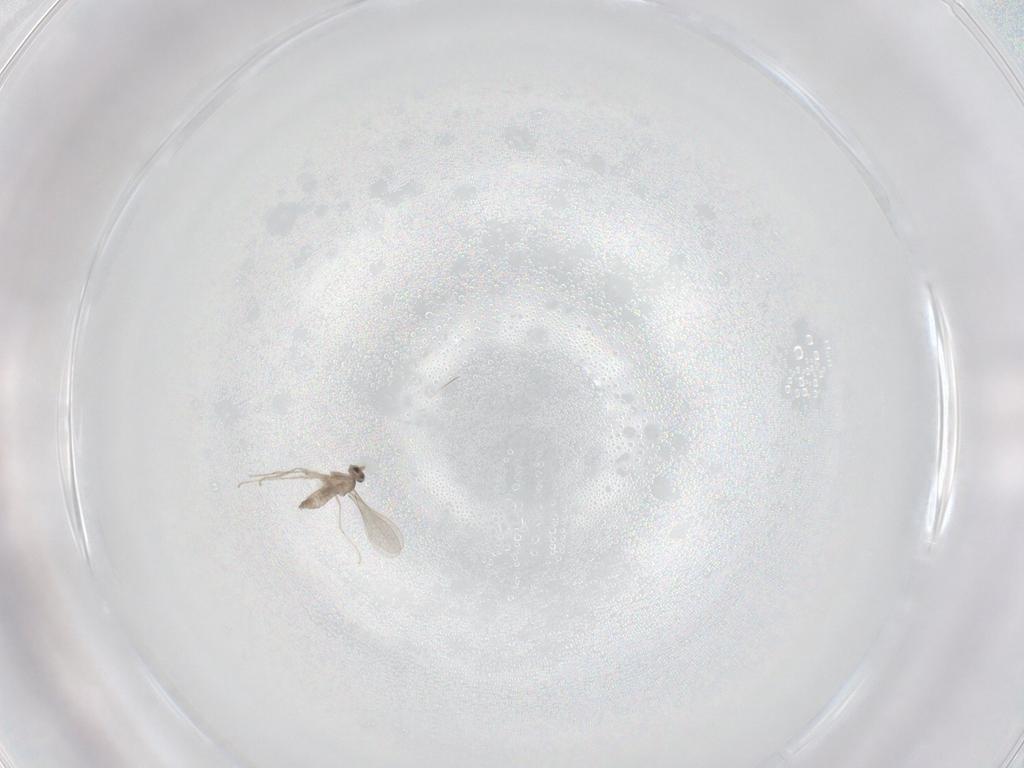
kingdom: Animalia
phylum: Arthropoda
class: Insecta
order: Diptera
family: Cecidomyiidae
